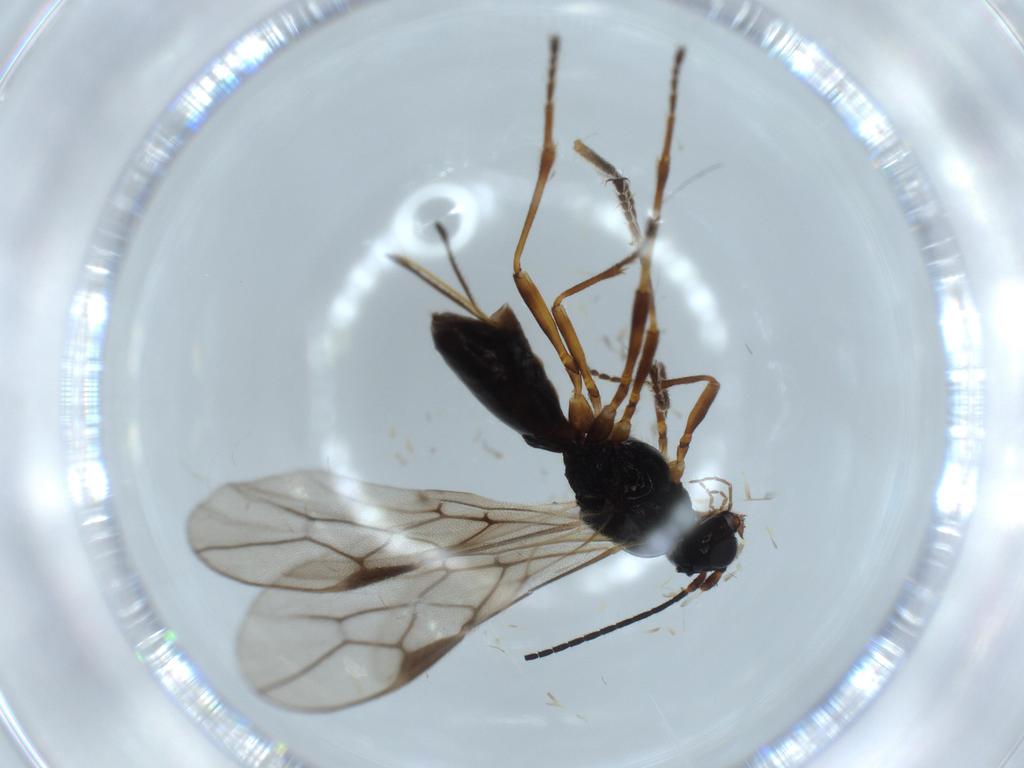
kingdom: Animalia
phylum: Arthropoda
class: Insecta
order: Hymenoptera
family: Braconidae
